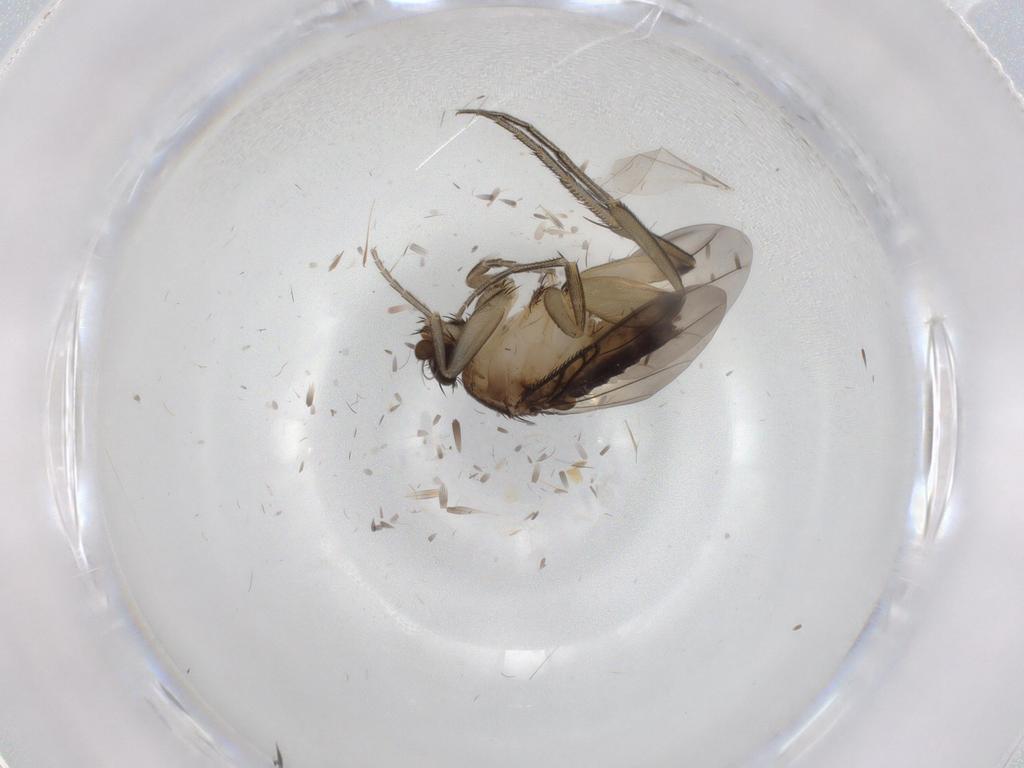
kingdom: Animalia
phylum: Arthropoda
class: Insecta
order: Diptera
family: Phoridae
